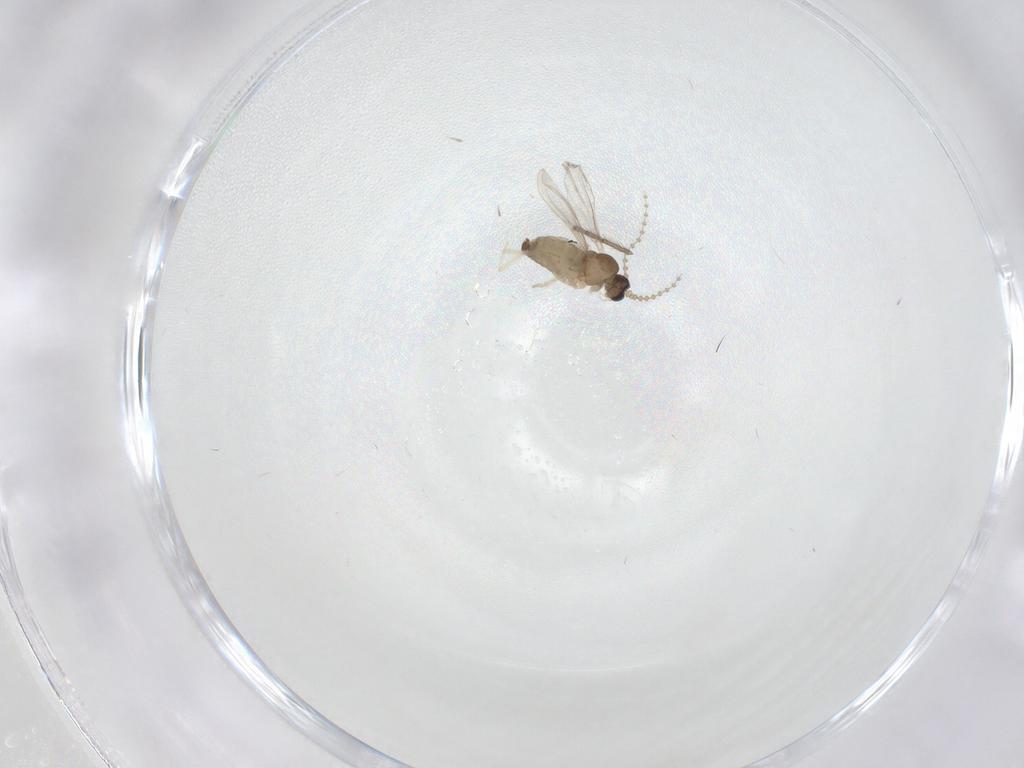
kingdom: Animalia
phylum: Arthropoda
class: Insecta
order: Diptera
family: Cecidomyiidae
